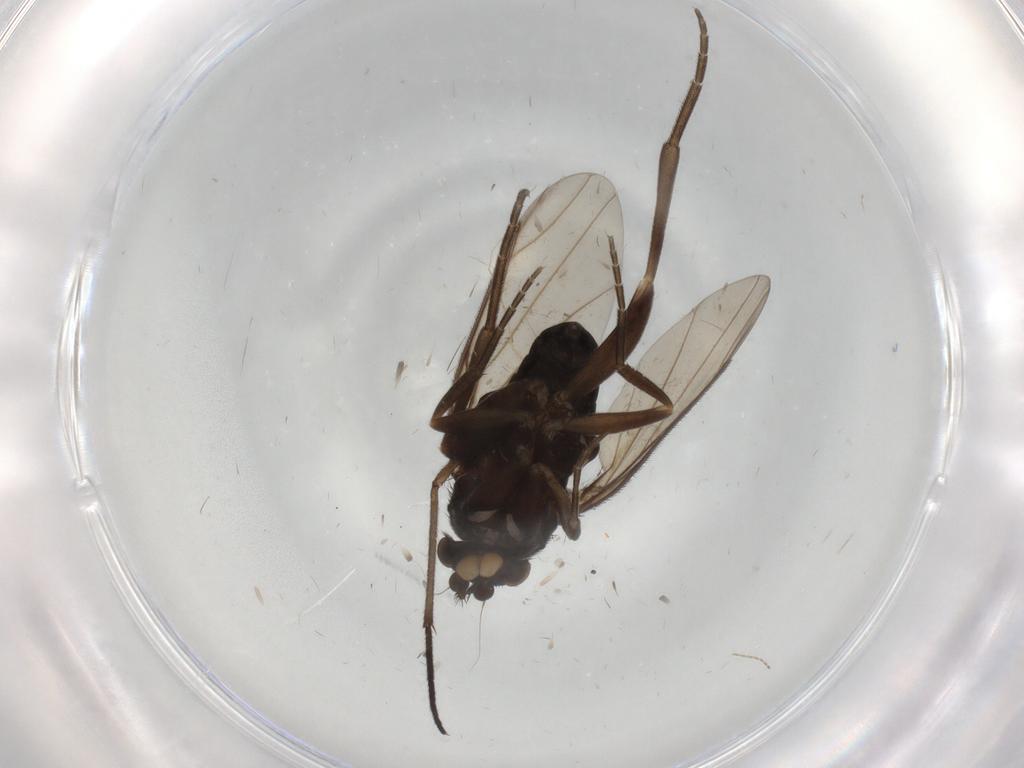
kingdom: Animalia
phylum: Arthropoda
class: Insecta
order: Diptera
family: Phoridae
